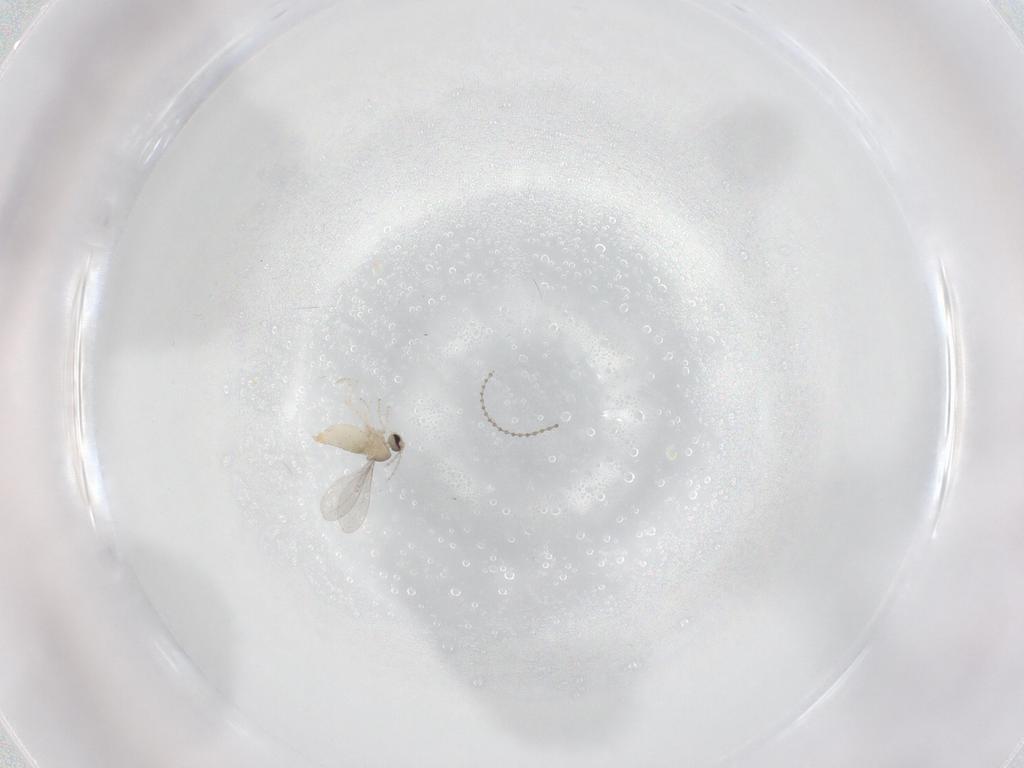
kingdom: Animalia
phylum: Arthropoda
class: Insecta
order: Diptera
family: Cecidomyiidae
